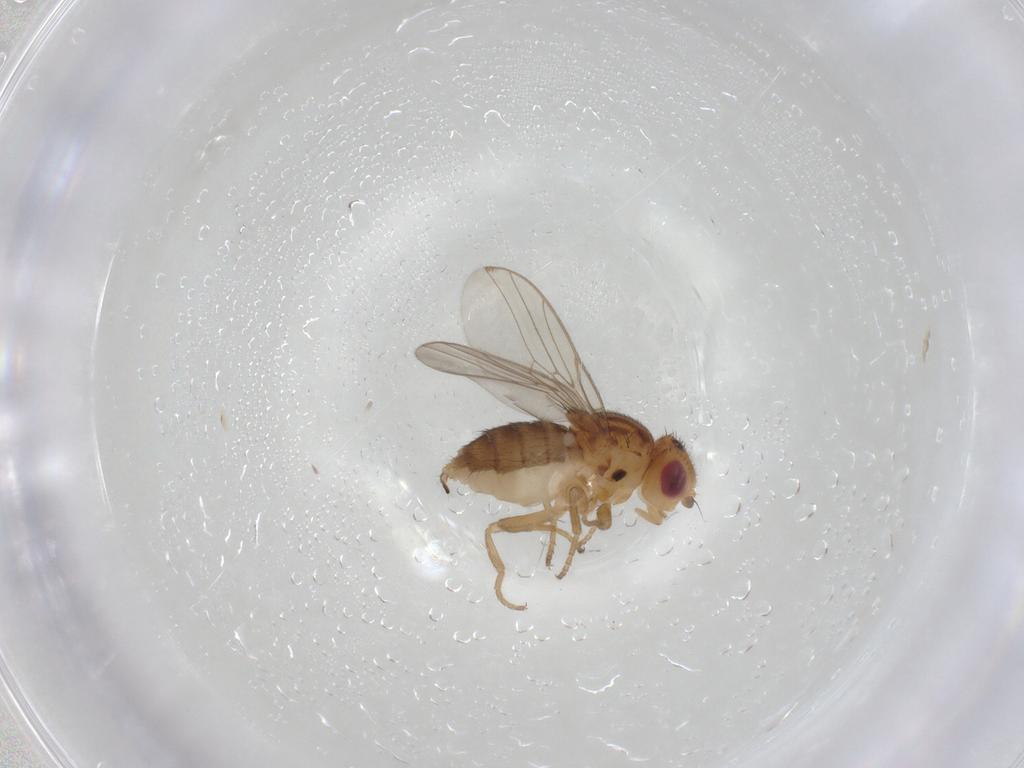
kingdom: Animalia
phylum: Arthropoda
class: Insecta
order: Diptera
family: Chloropidae
